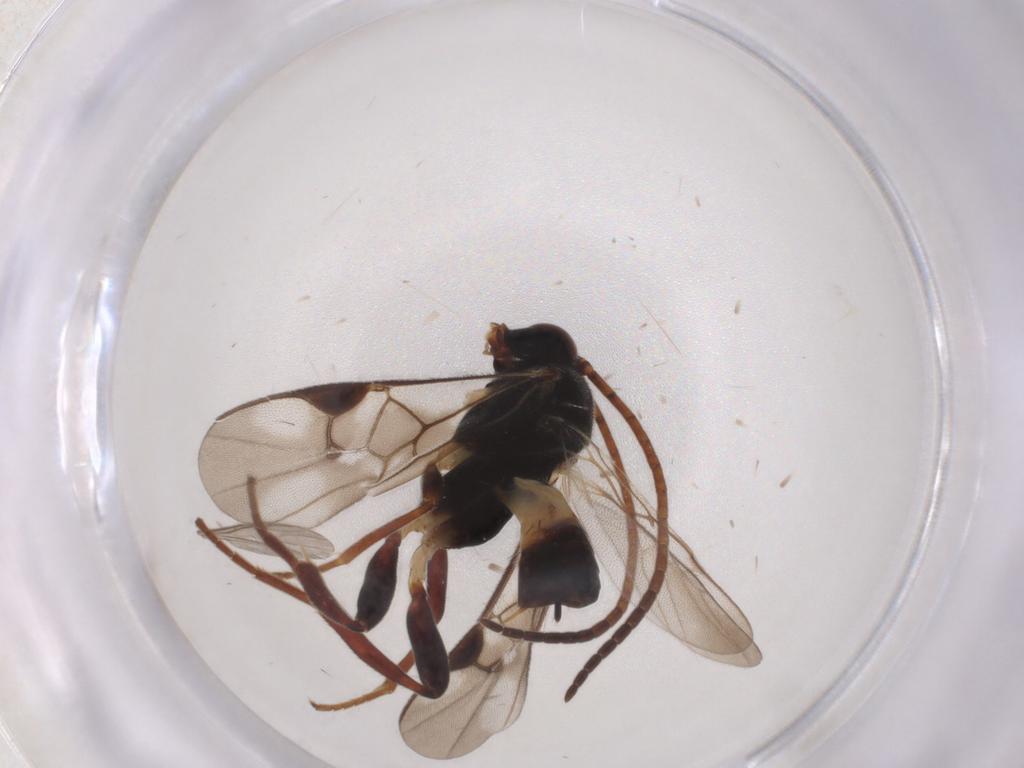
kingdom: Animalia
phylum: Arthropoda
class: Insecta
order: Hymenoptera
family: Braconidae
